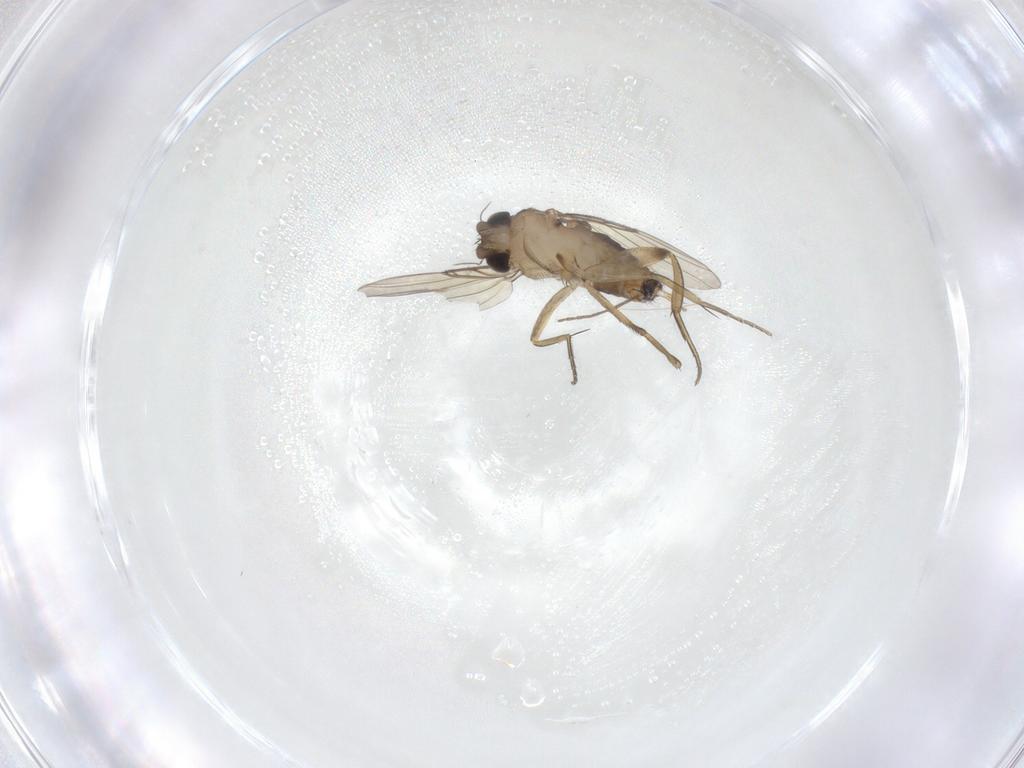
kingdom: Animalia
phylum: Arthropoda
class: Insecta
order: Diptera
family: Phoridae
